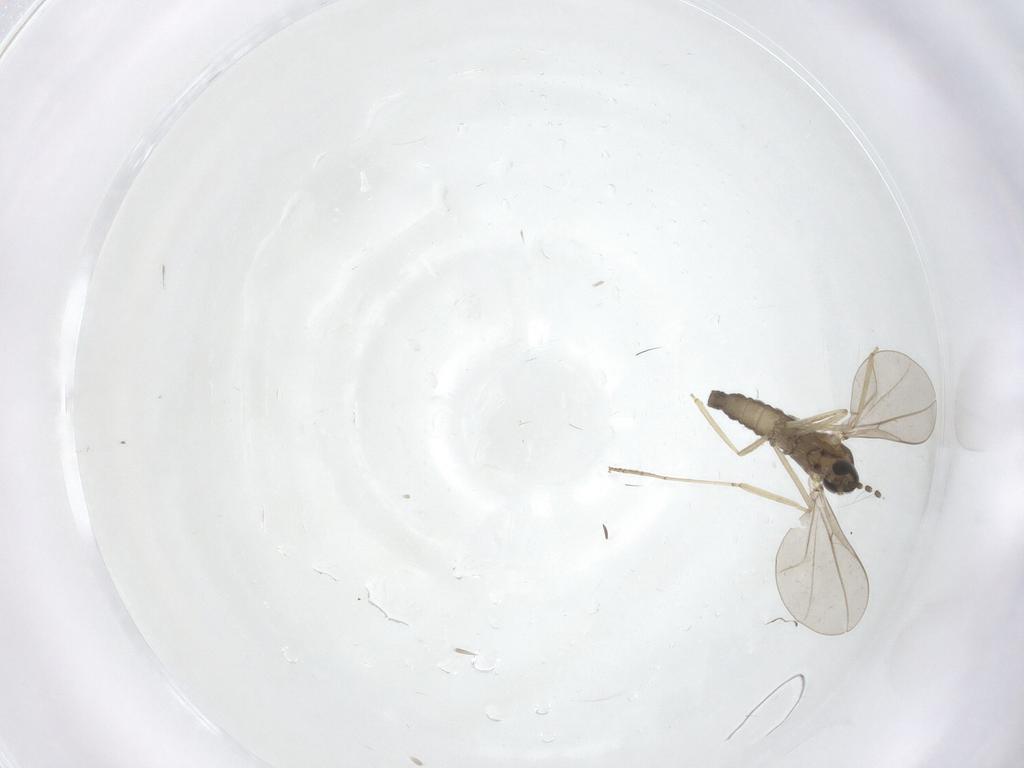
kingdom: Animalia
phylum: Arthropoda
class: Insecta
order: Diptera
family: Cecidomyiidae
